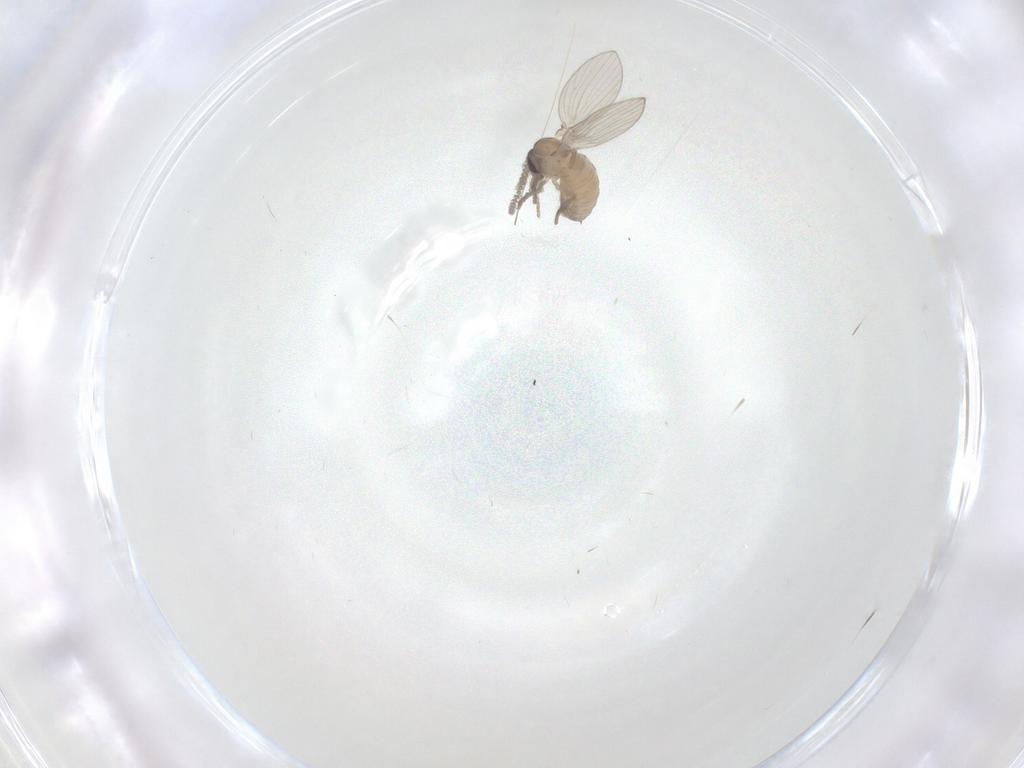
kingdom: Animalia
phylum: Arthropoda
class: Insecta
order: Diptera
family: Psychodidae
